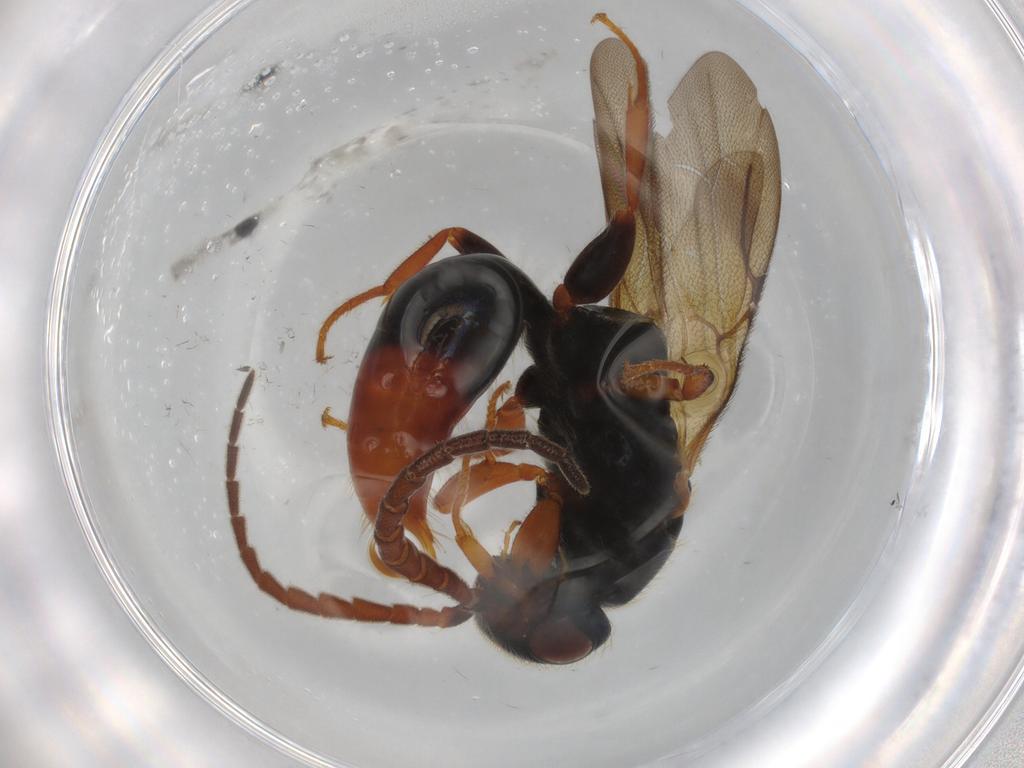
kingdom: Animalia
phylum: Arthropoda
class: Insecta
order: Hymenoptera
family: Bethylidae
